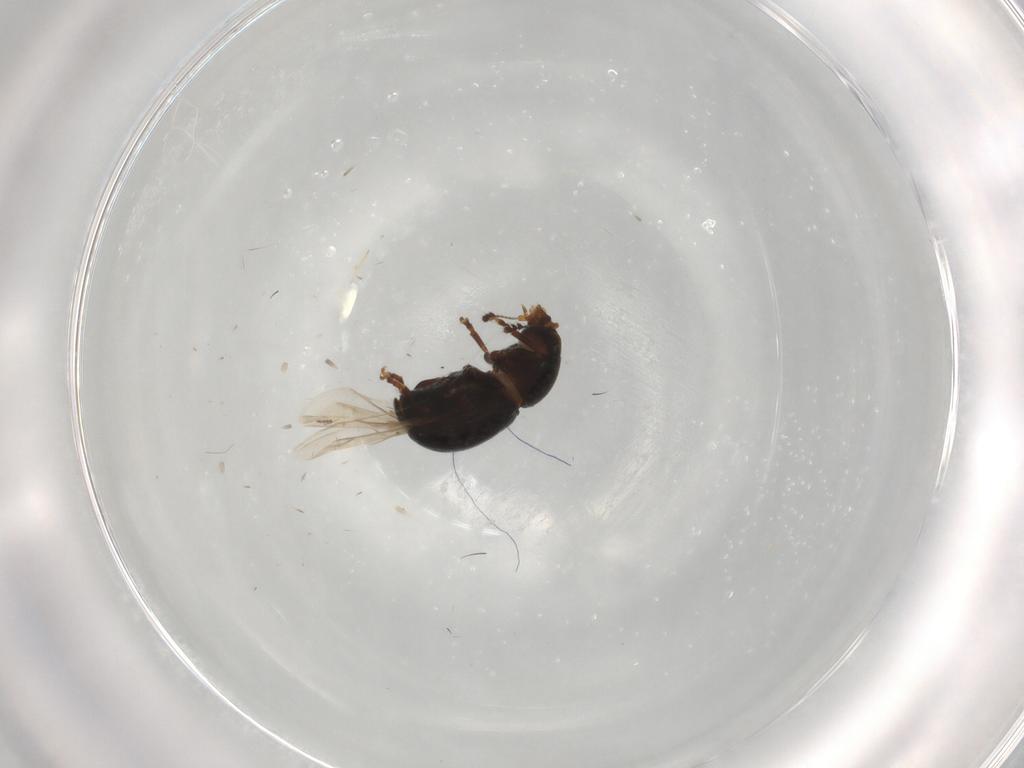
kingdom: Animalia
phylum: Arthropoda
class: Insecta
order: Coleoptera
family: Anthribidae
